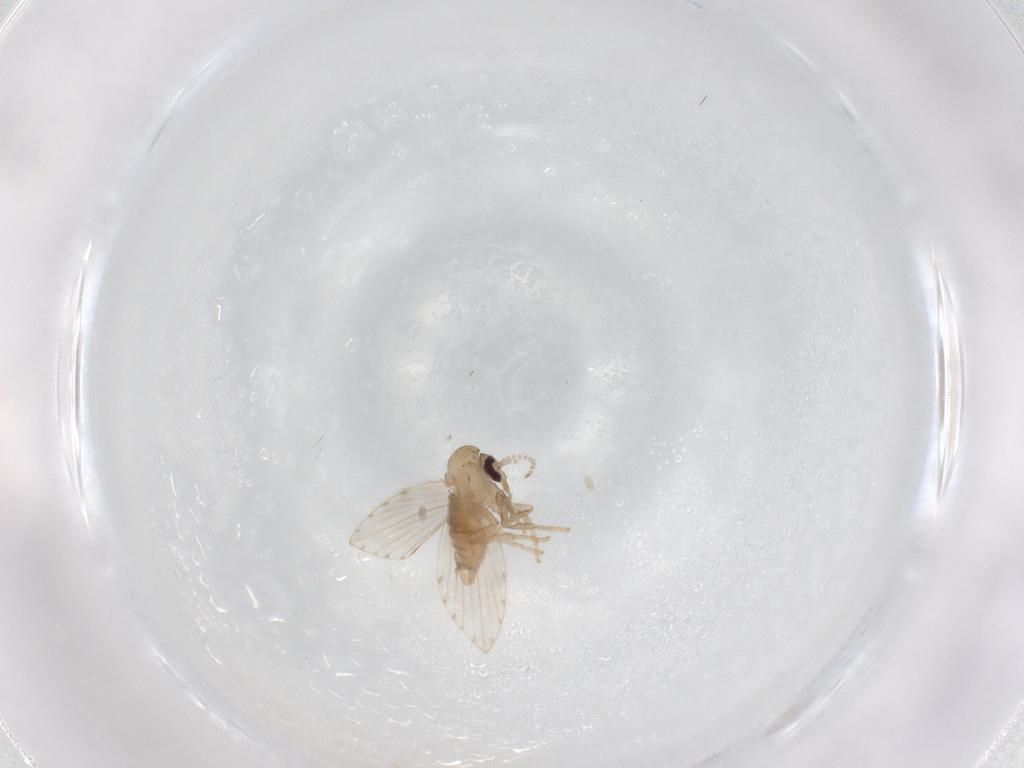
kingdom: Animalia
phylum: Arthropoda
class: Insecta
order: Diptera
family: Psychodidae
